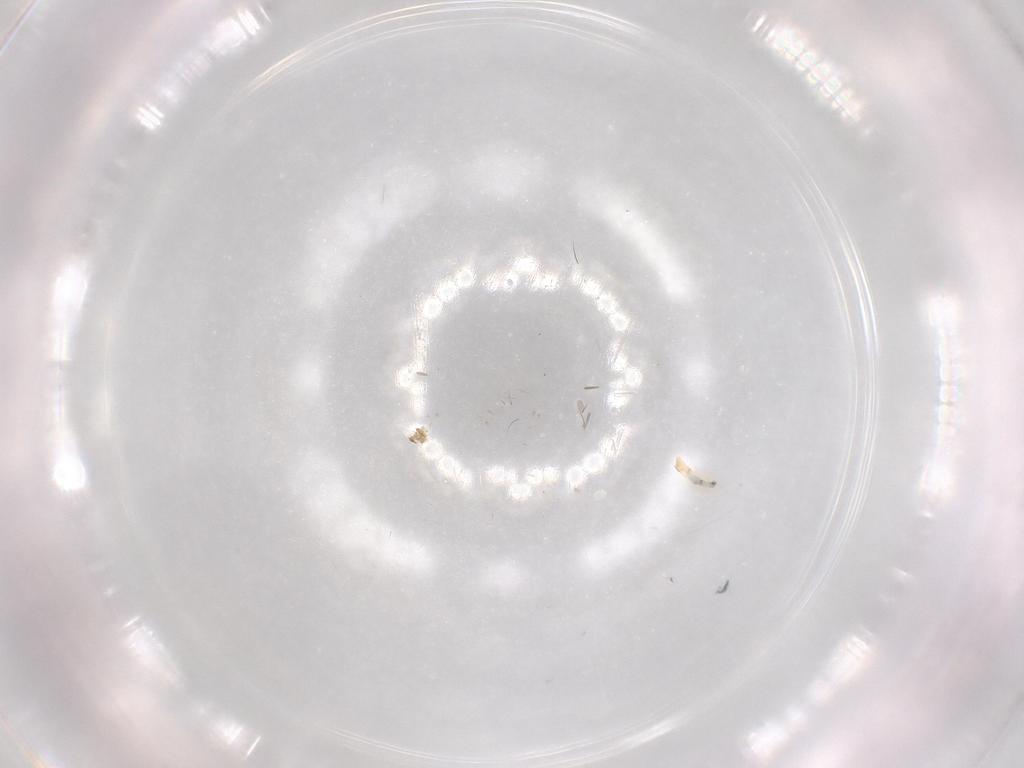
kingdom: Animalia
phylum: Arthropoda
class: Insecta
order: Hemiptera
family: Cicadellidae
